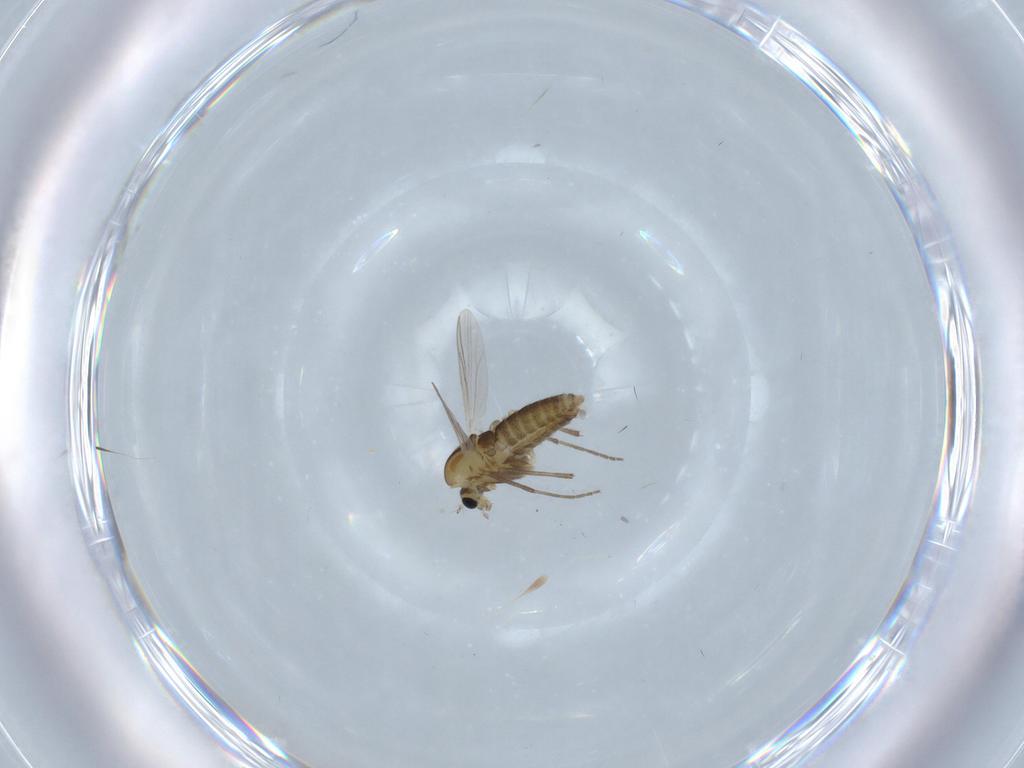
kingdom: Animalia
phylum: Arthropoda
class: Insecta
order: Diptera
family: Chironomidae
